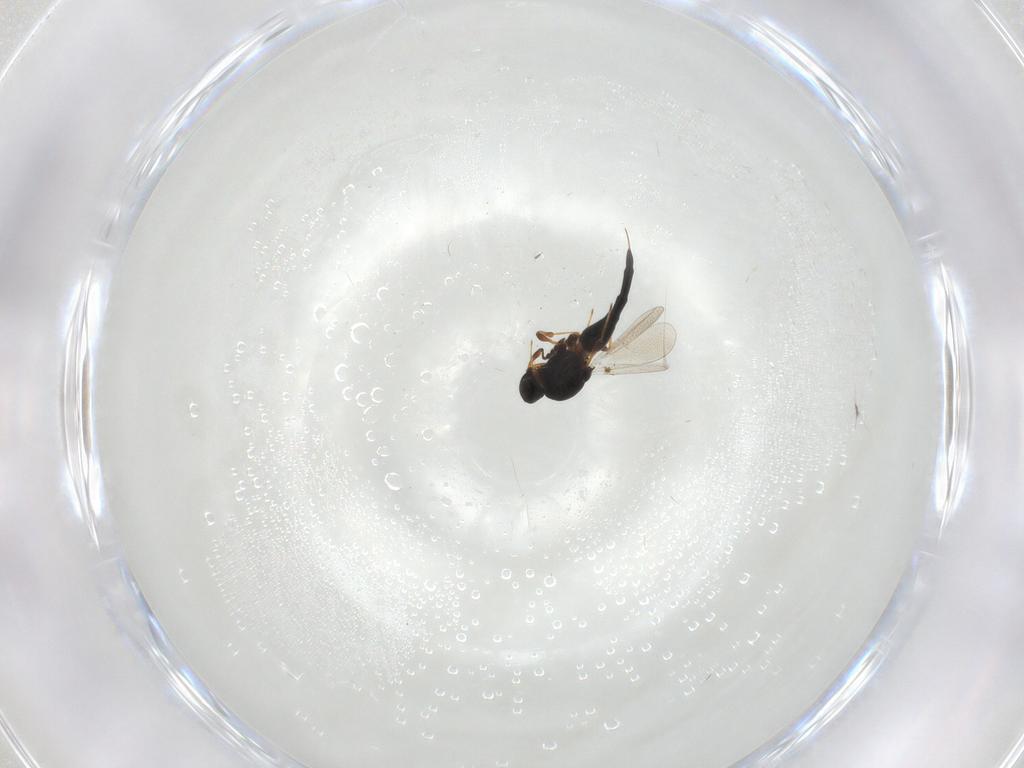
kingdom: Animalia
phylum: Arthropoda
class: Insecta
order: Hymenoptera
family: Platygastridae
